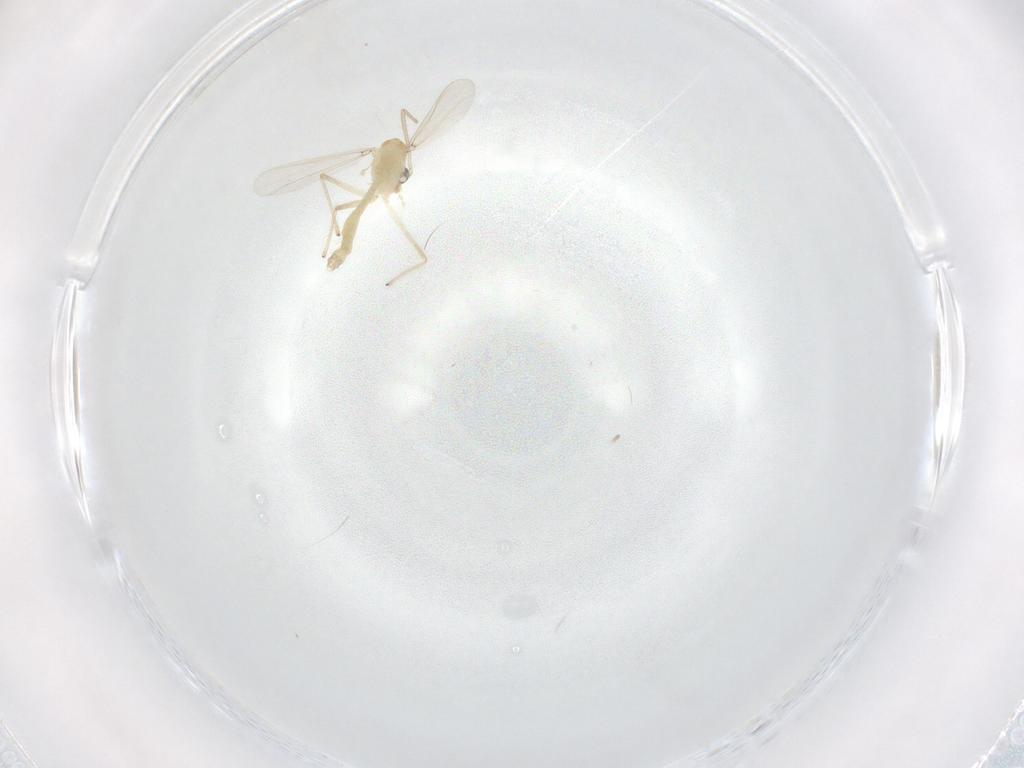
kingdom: Animalia
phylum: Arthropoda
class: Insecta
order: Diptera
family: Chironomidae
